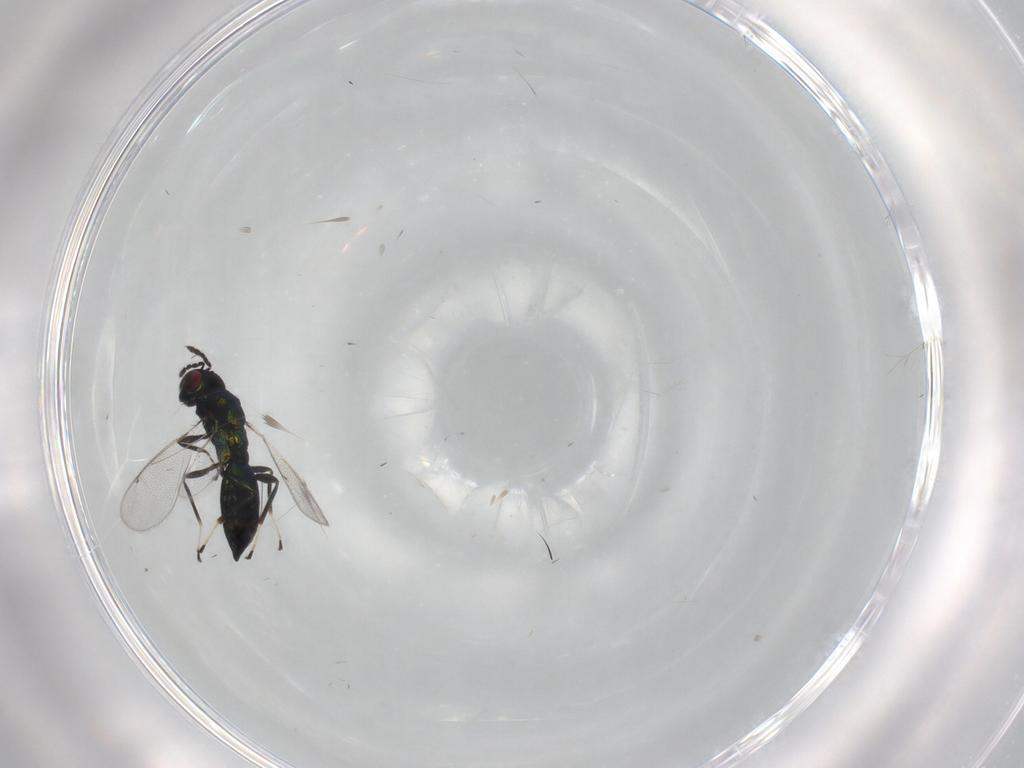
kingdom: Animalia
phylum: Arthropoda
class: Insecta
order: Hymenoptera
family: Ichneumonidae
